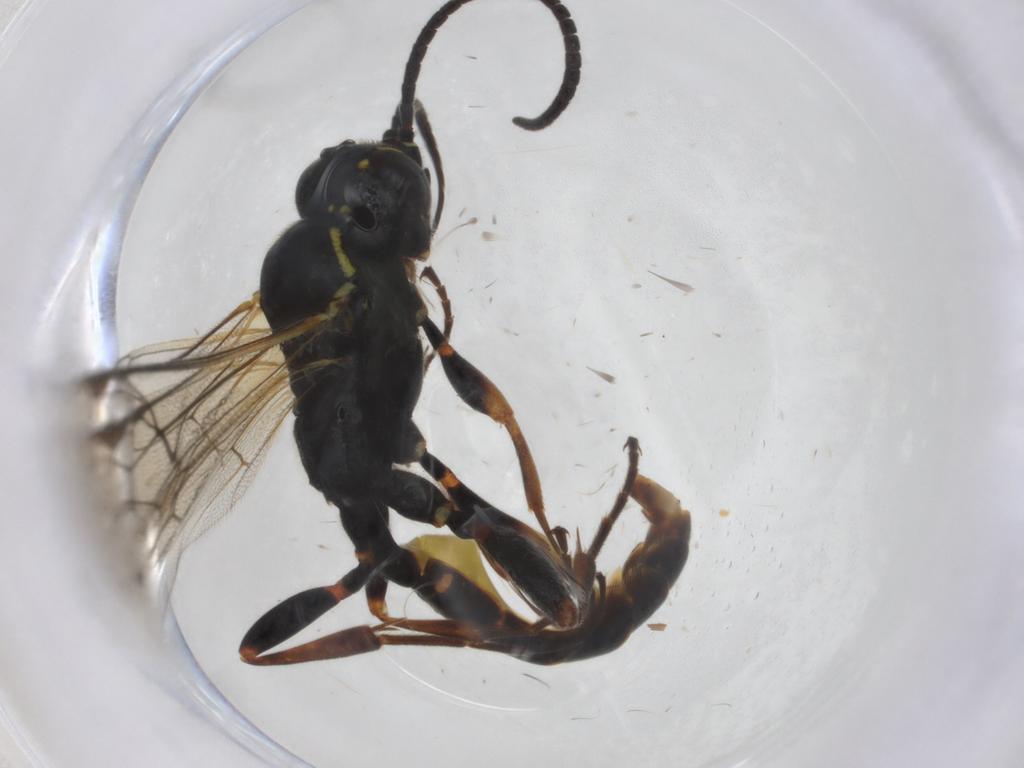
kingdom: Animalia
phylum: Arthropoda
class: Insecta
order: Hymenoptera
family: Ichneumonidae
